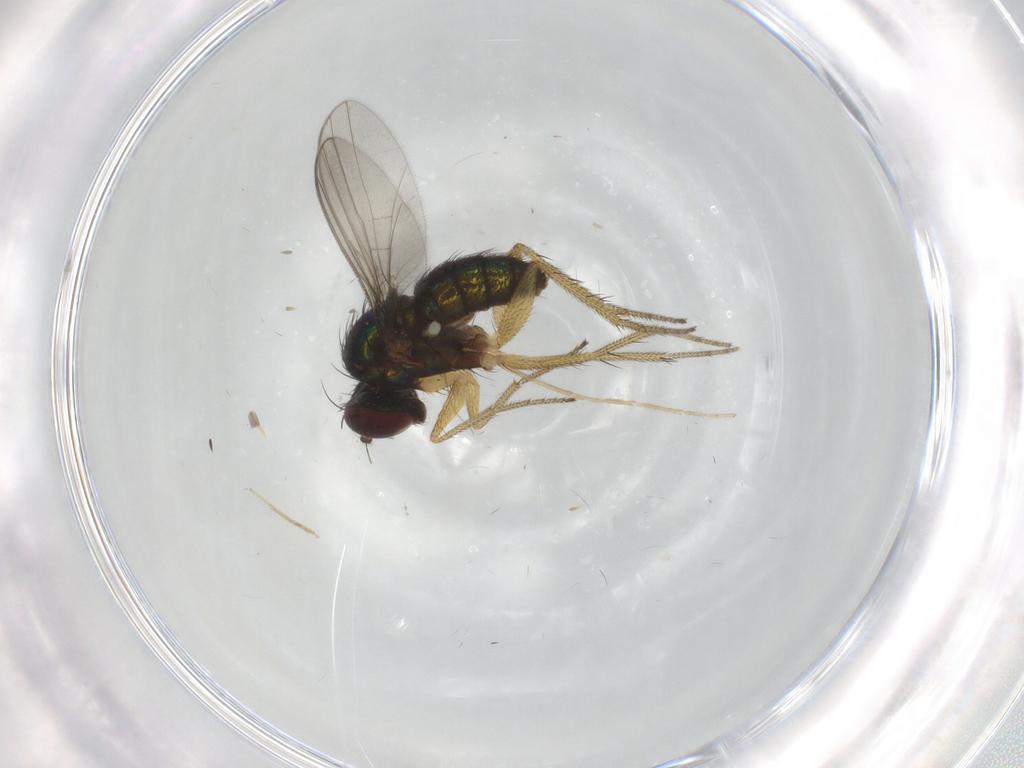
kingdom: Animalia
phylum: Arthropoda
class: Insecta
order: Diptera
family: Dolichopodidae
